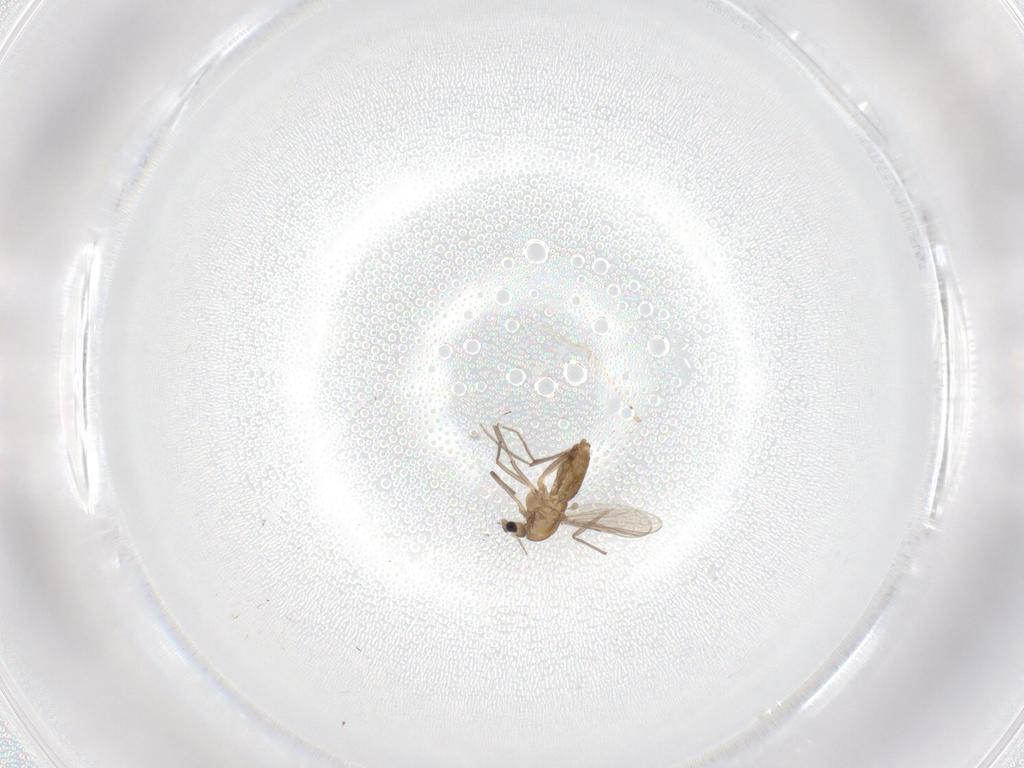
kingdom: Animalia
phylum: Arthropoda
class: Insecta
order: Diptera
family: Chironomidae
